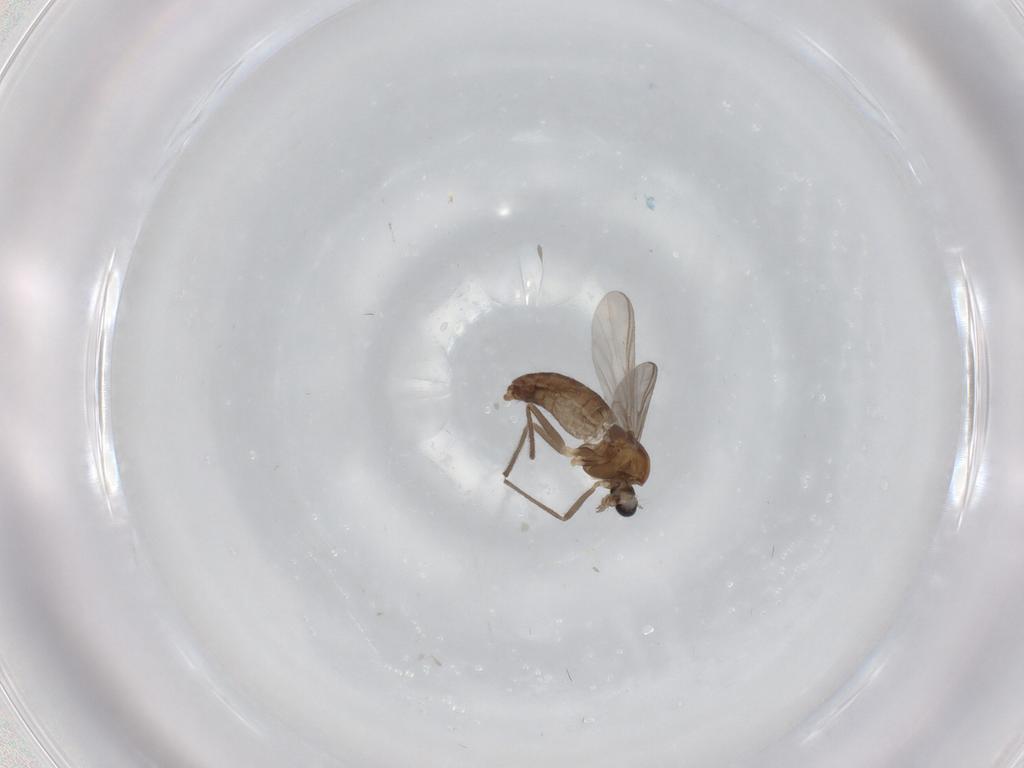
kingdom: Animalia
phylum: Arthropoda
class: Insecta
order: Diptera
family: Chironomidae
